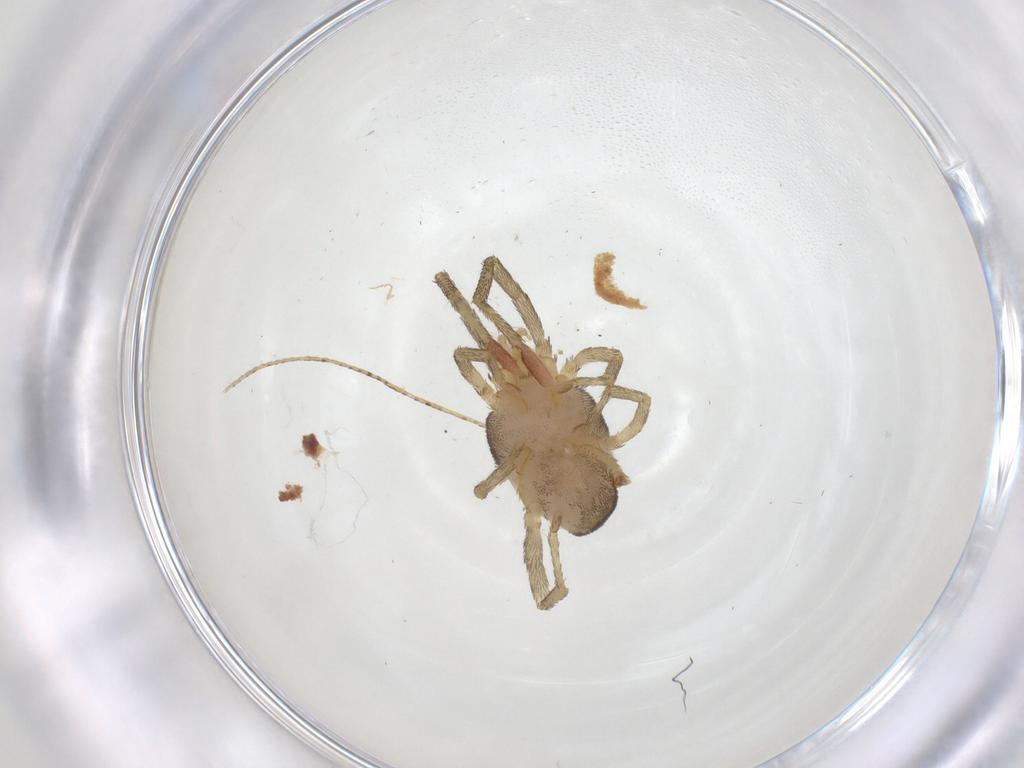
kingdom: Animalia
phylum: Arthropoda
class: Arachnida
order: Trombidiformes
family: Erythraeidae
